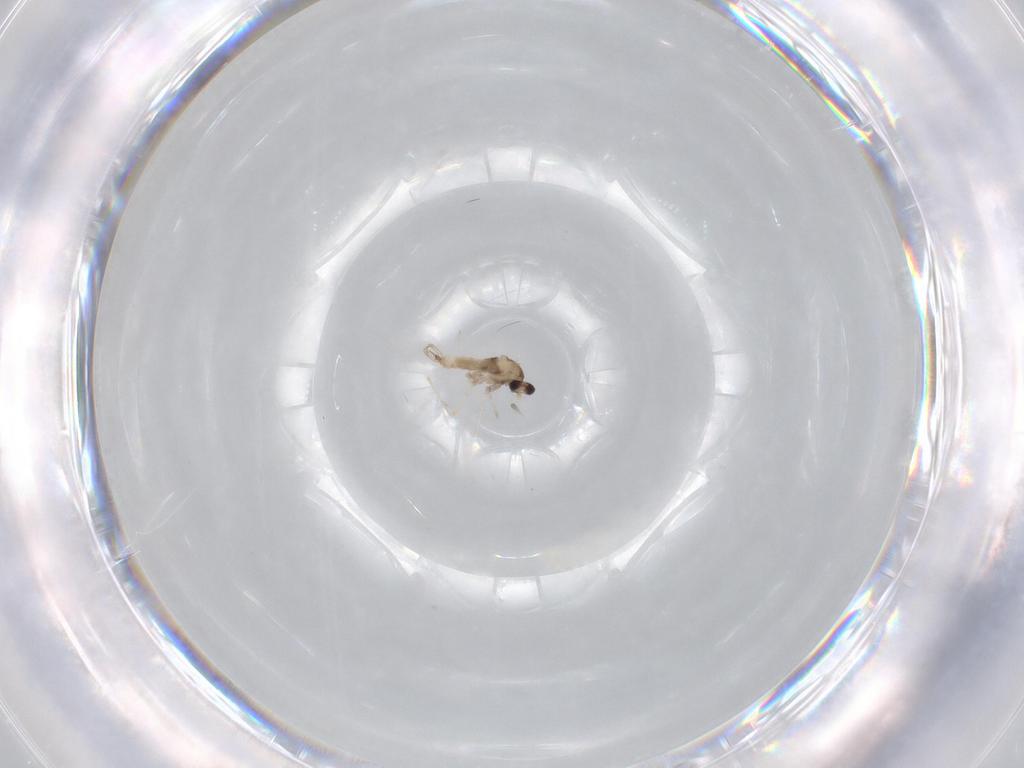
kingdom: Animalia
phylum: Arthropoda
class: Insecta
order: Diptera
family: Cecidomyiidae
